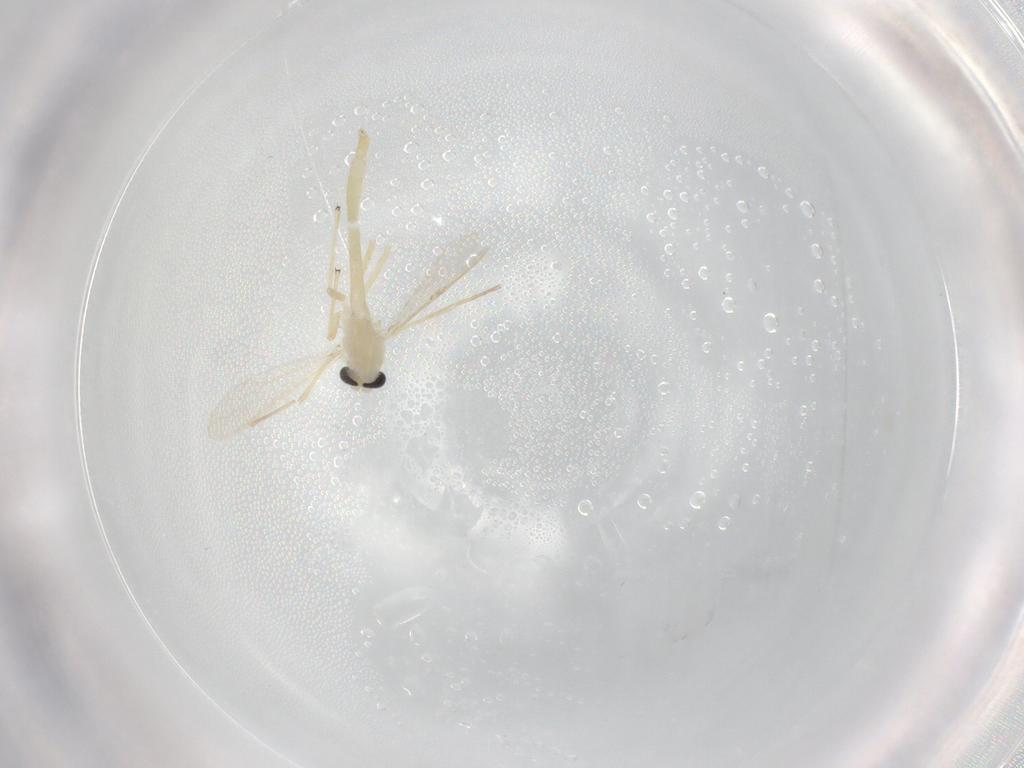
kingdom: Animalia
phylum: Arthropoda
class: Insecta
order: Diptera
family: Chironomidae
